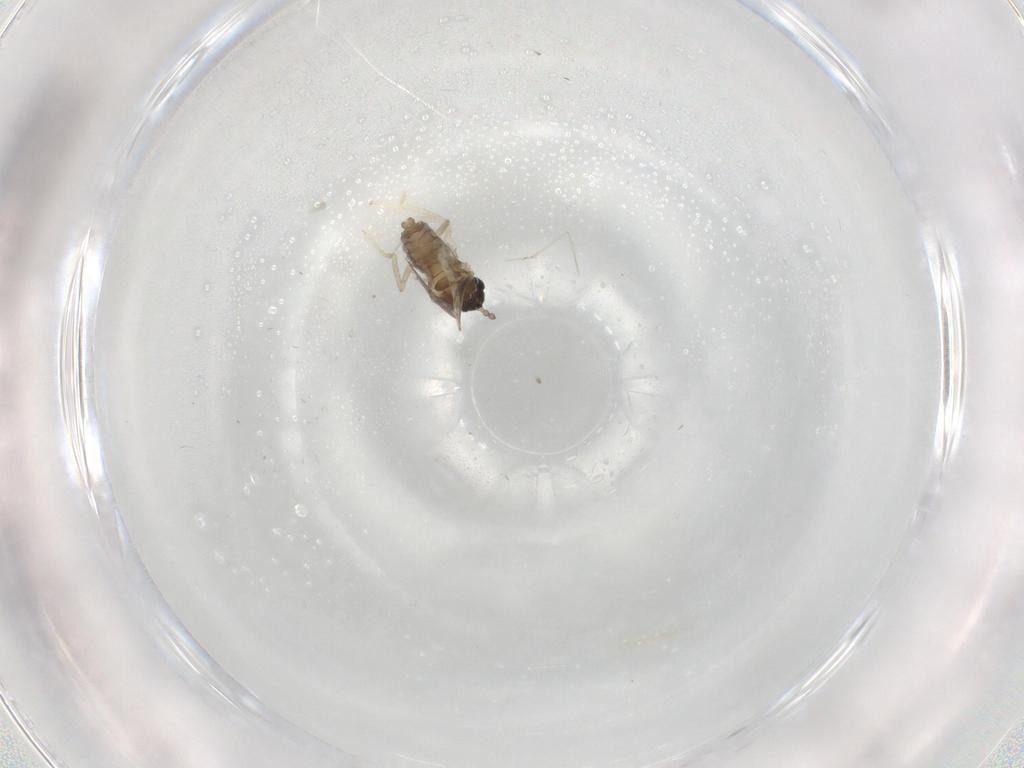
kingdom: Animalia
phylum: Arthropoda
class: Insecta
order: Diptera
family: Cecidomyiidae
